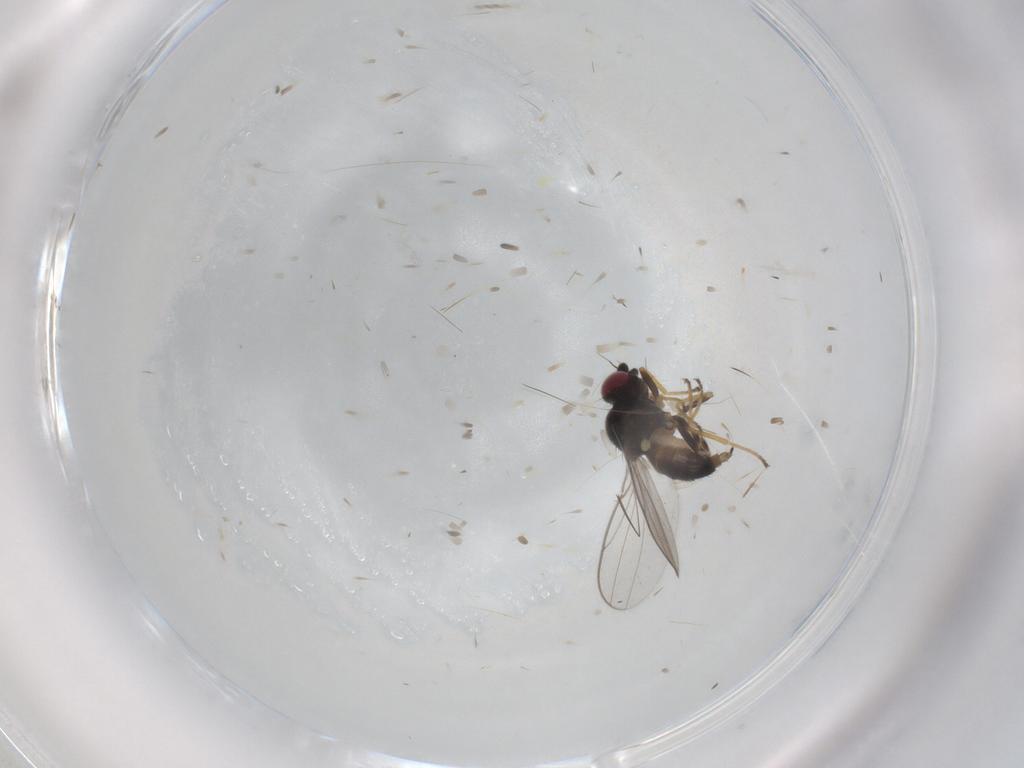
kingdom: Animalia
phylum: Arthropoda
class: Insecta
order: Diptera
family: Chloropidae
